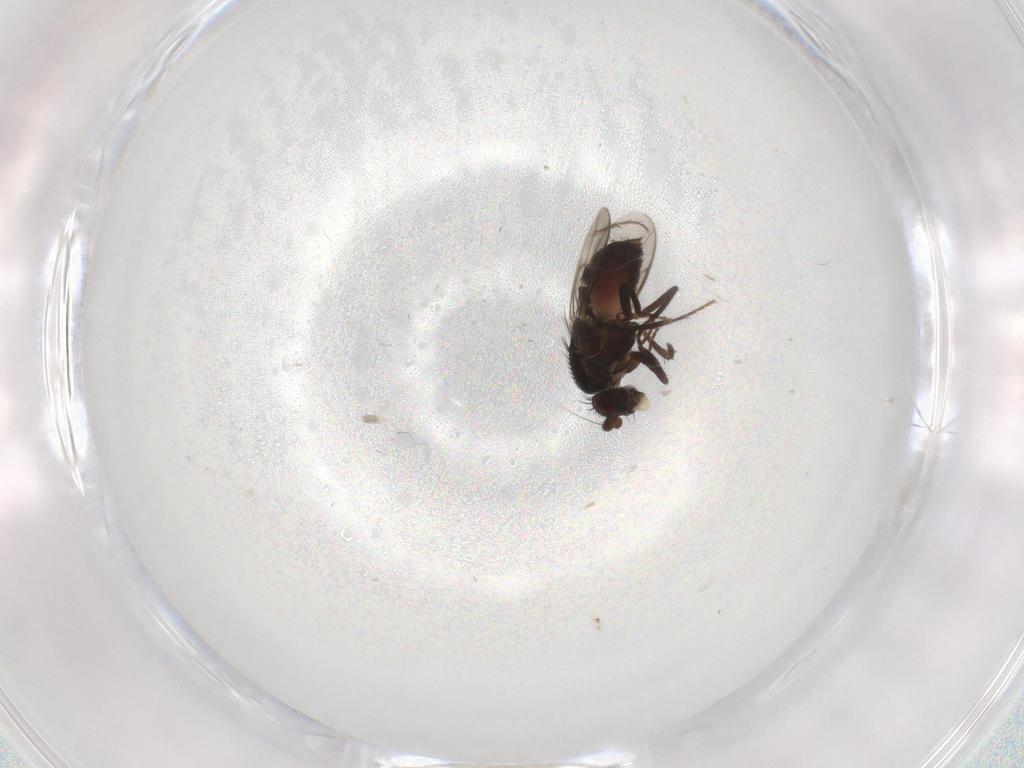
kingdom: Animalia
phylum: Arthropoda
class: Insecta
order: Diptera
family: Sphaeroceridae
